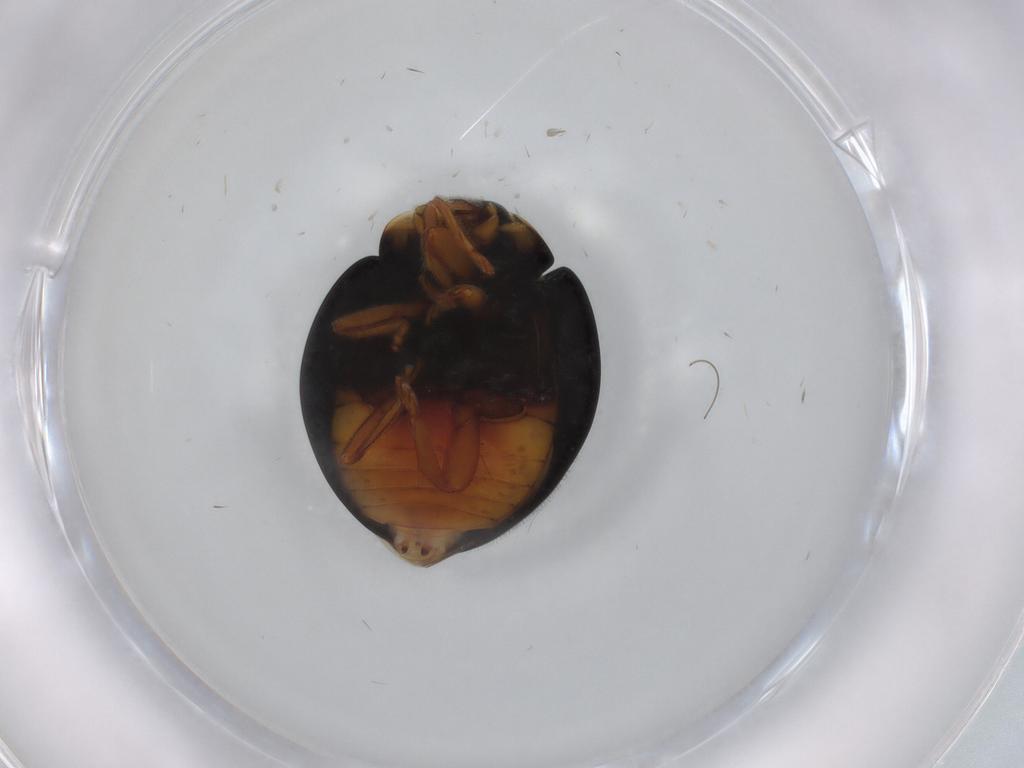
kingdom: Animalia
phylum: Arthropoda
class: Insecta
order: Coleoptera
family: Coccinellidae
